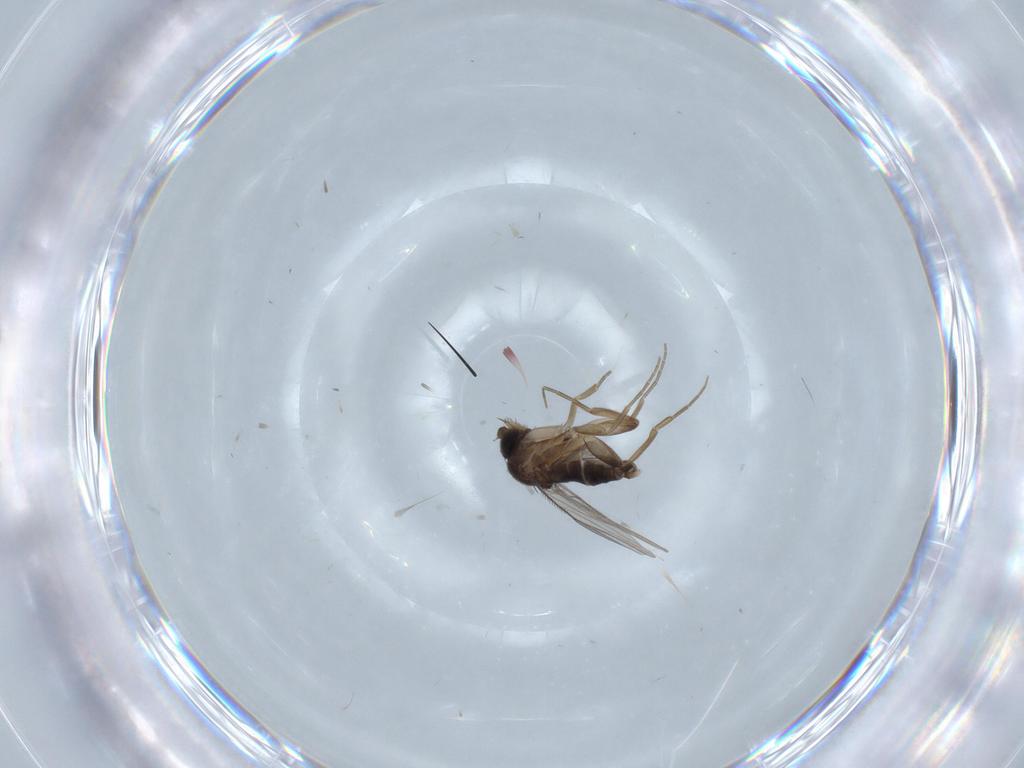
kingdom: Animalia
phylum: Arthropoda
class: Insecta
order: Diptera
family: Phoridae
